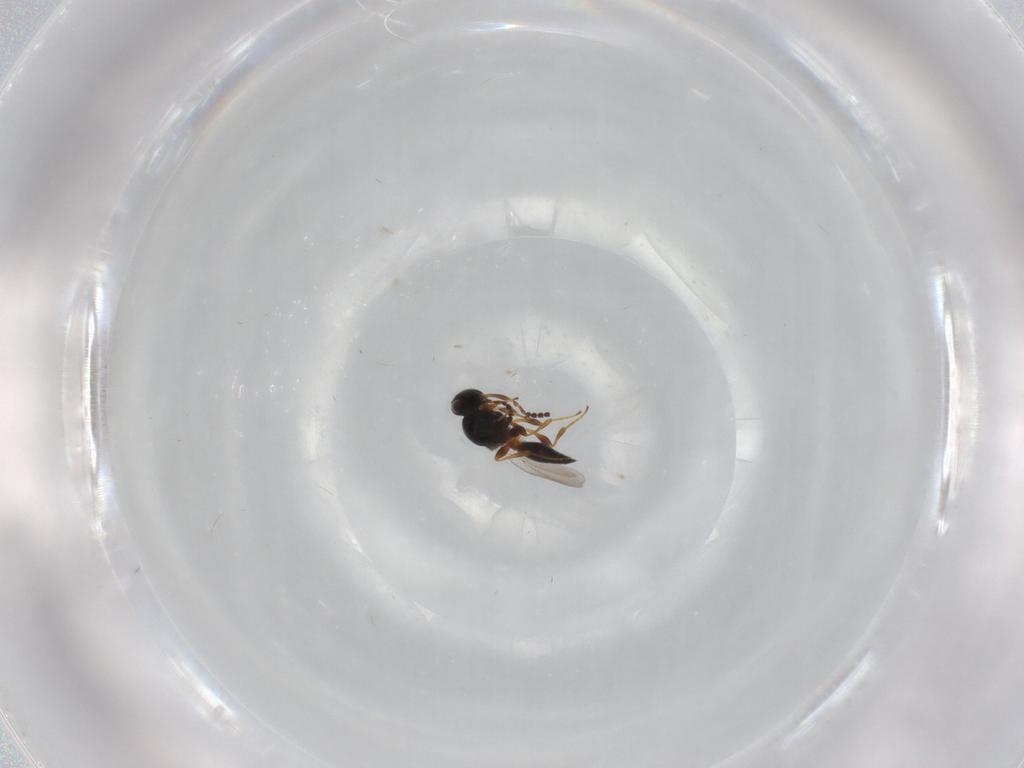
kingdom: Animalia
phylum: Arthropoda
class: Insecta
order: Hymenoptera
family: Platygastridae
